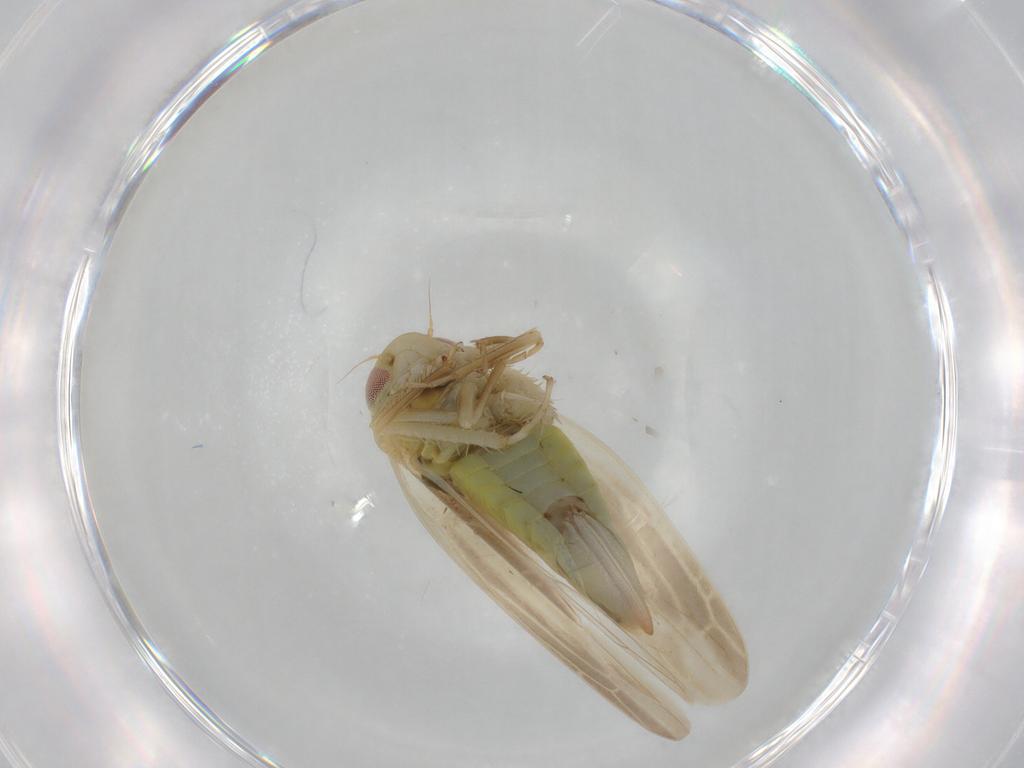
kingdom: Animalia
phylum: Arthropoda
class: Insecta
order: Hemiptera
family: Cicadellidae
